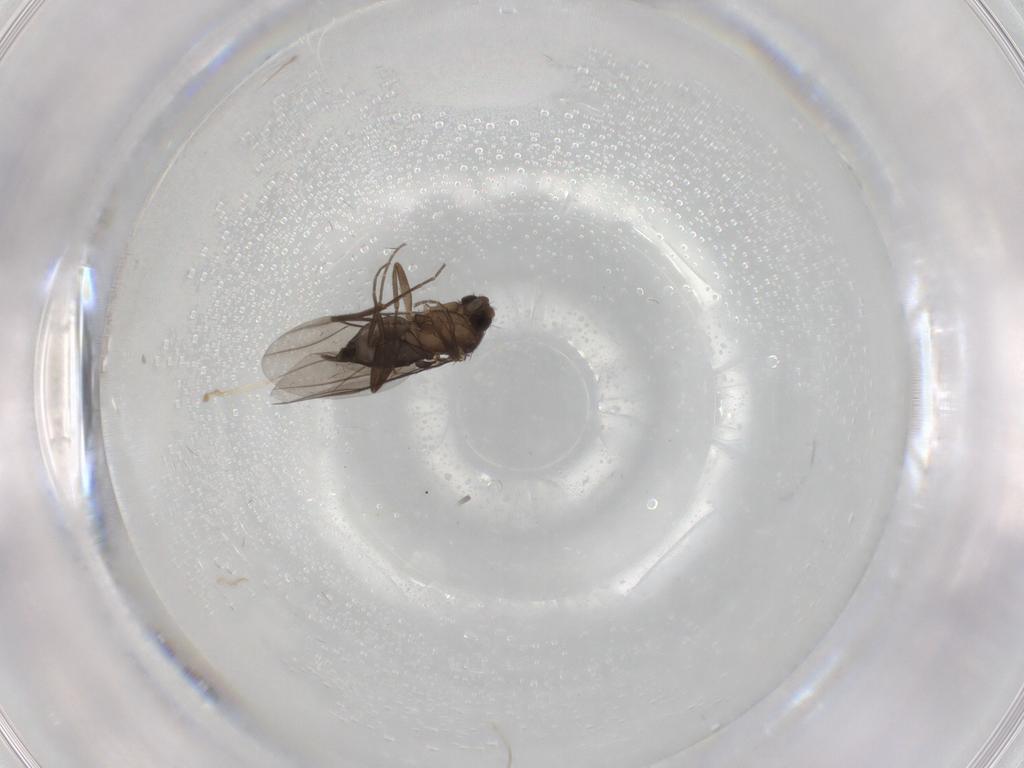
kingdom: Animalia
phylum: Arthropoda
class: Insecta
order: Diptera
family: Phoridae
